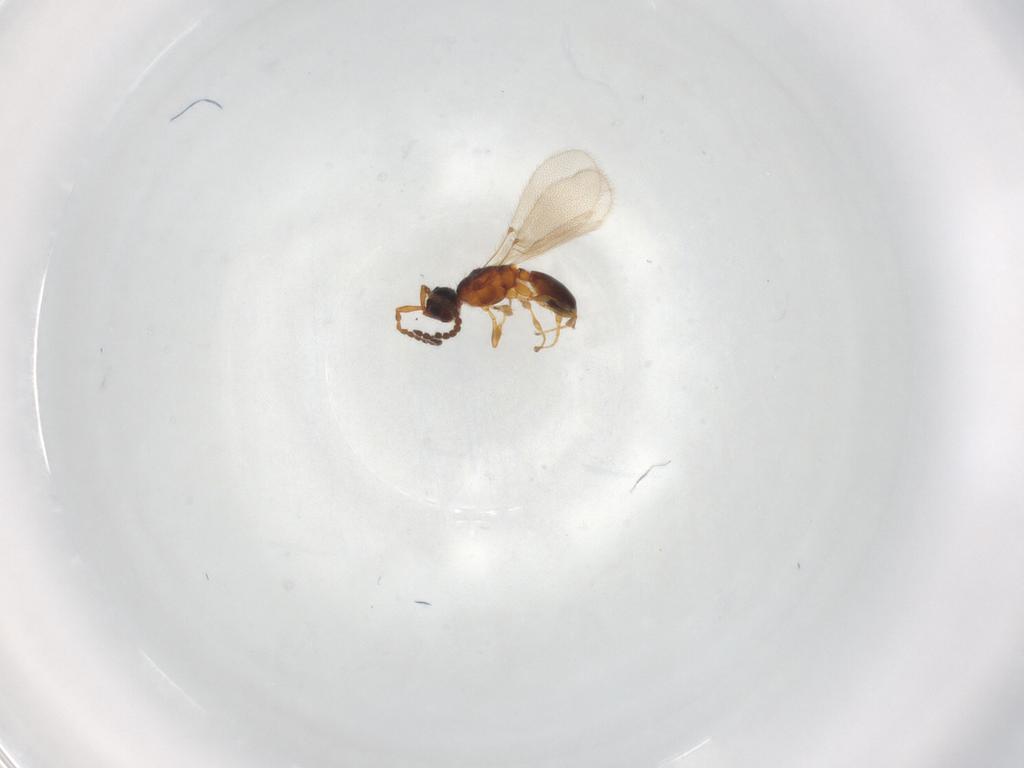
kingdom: Animalia
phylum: Arthropoda
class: Insecta
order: Hymenoptera
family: Diapriidae
